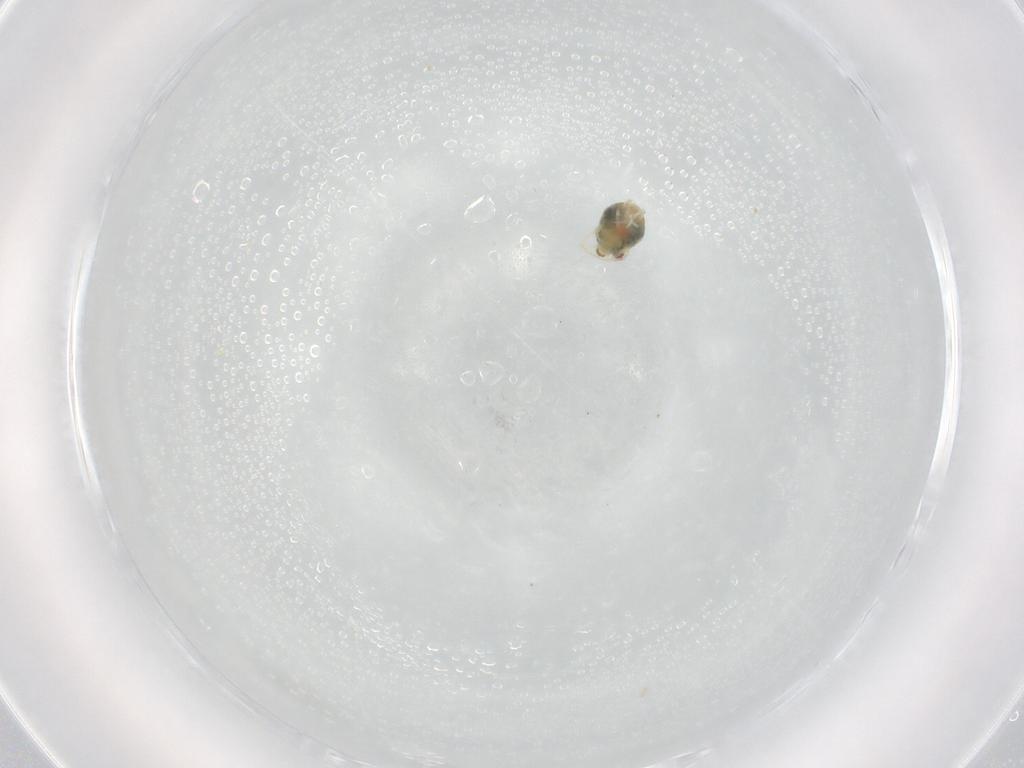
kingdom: Animalia
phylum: Arthropoda
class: Arachnida
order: Trombidiformes
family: Tetranychidae
